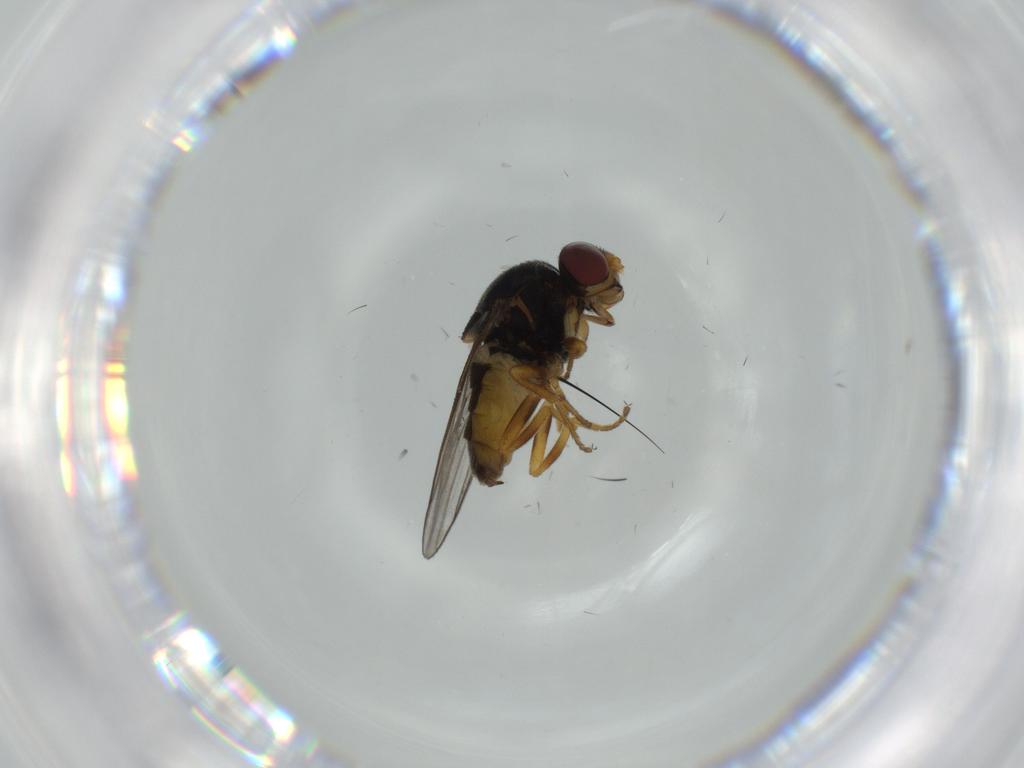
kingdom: Animalia
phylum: Arthropoda
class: Insecta
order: Diptera
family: Chloropidae
